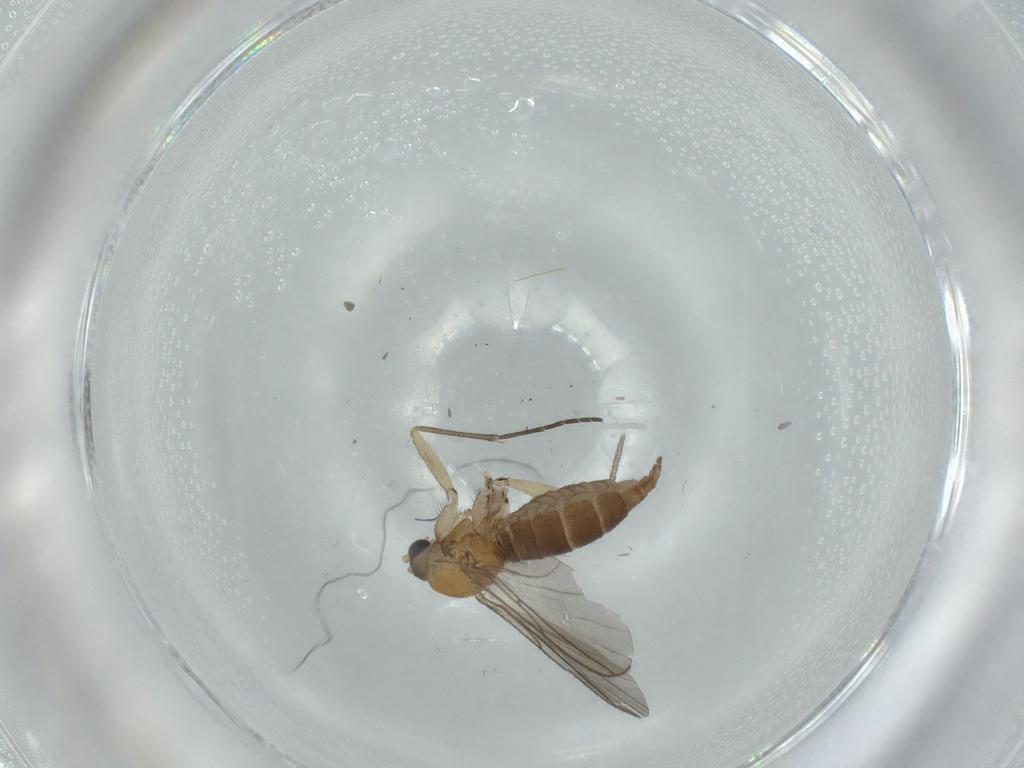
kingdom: Animalia
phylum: Arthropoda
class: Insecta
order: Diptera
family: Sciaridae
